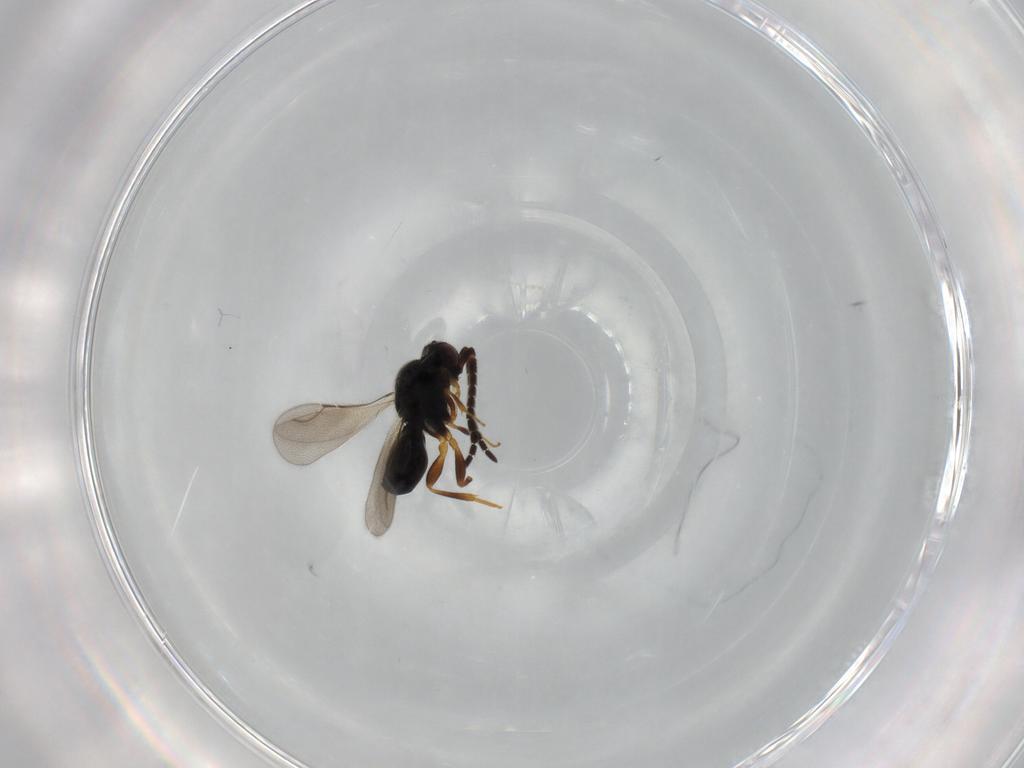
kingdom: Animalia
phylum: Arthropoda
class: Insecta
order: Hymenoptera
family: Ceraphronidae
